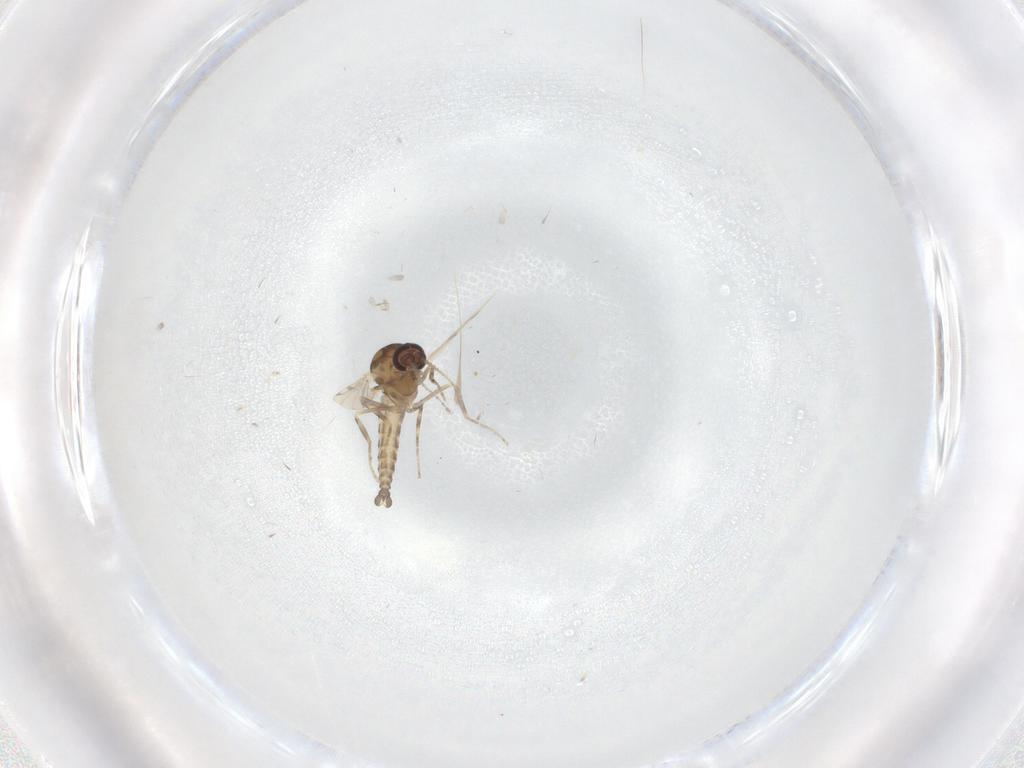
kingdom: Animalia
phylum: Arthropoda
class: Insecta
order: Diptera
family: Ceratopogonidae
